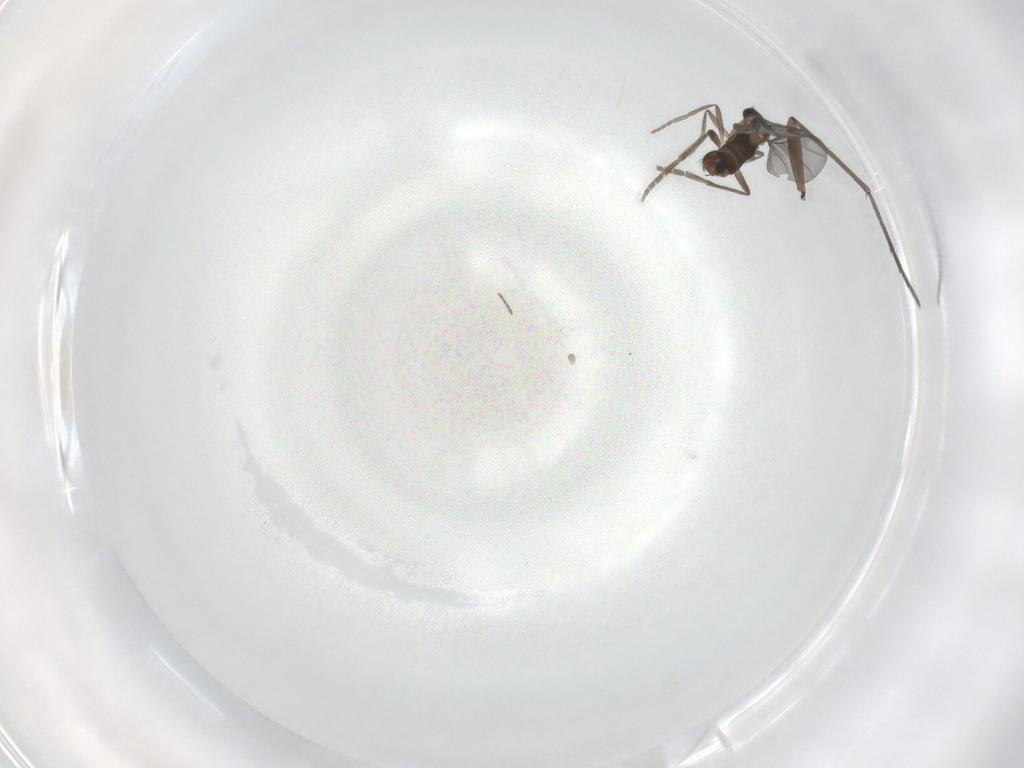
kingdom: Animalia
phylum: Arthropoda
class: Insecta
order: Diptera
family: Phoridae
